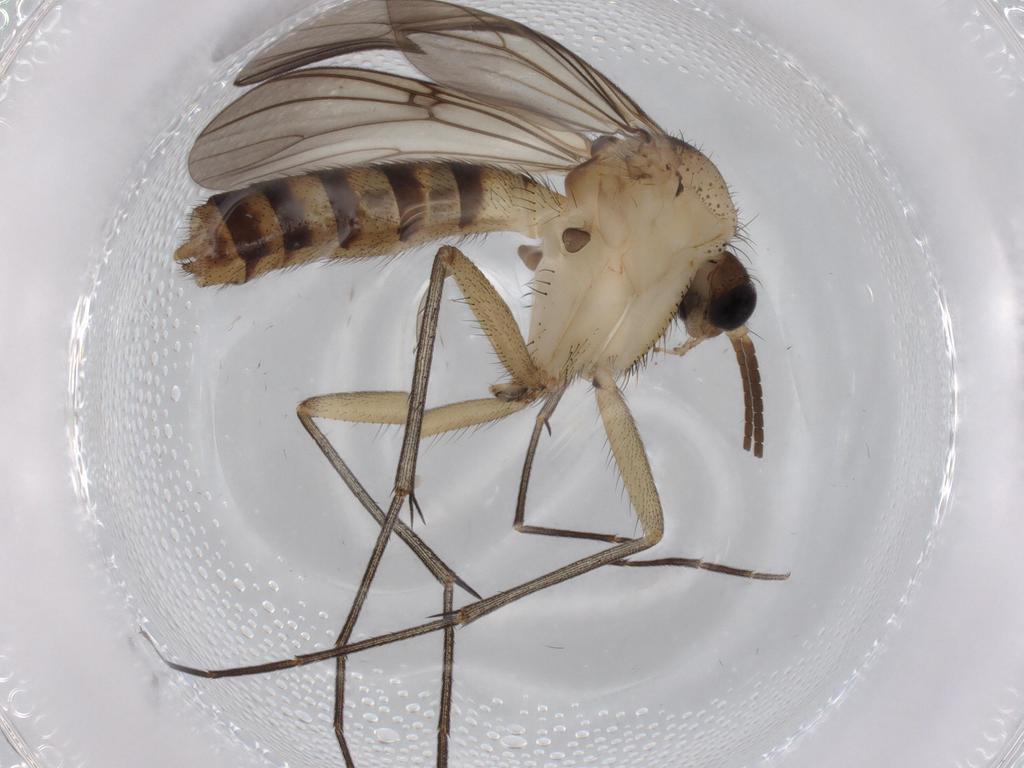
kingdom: Animalia
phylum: Arthropoda
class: Insecta
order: Diptera
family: Mycetophilidae
